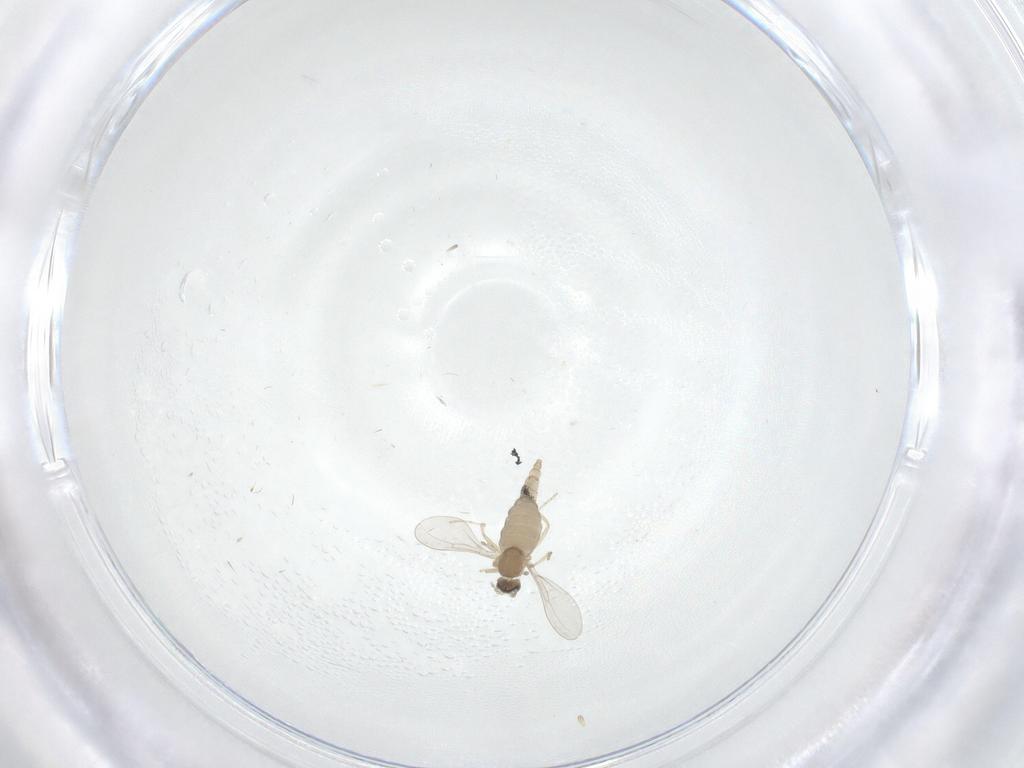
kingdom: Animalia
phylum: Arthropoda
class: Insecta
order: Diptera
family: Cecidomyiidae
